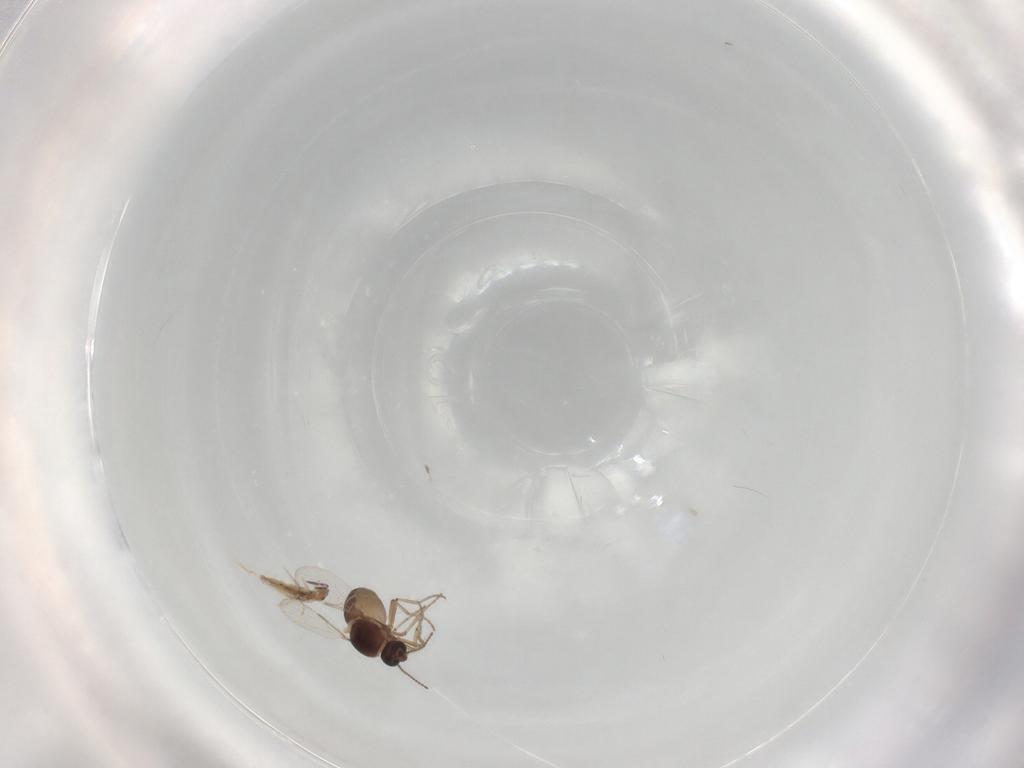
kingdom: Animalia
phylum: Arthropoda
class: Insecta
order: Diptera
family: Ceratopogonidae
